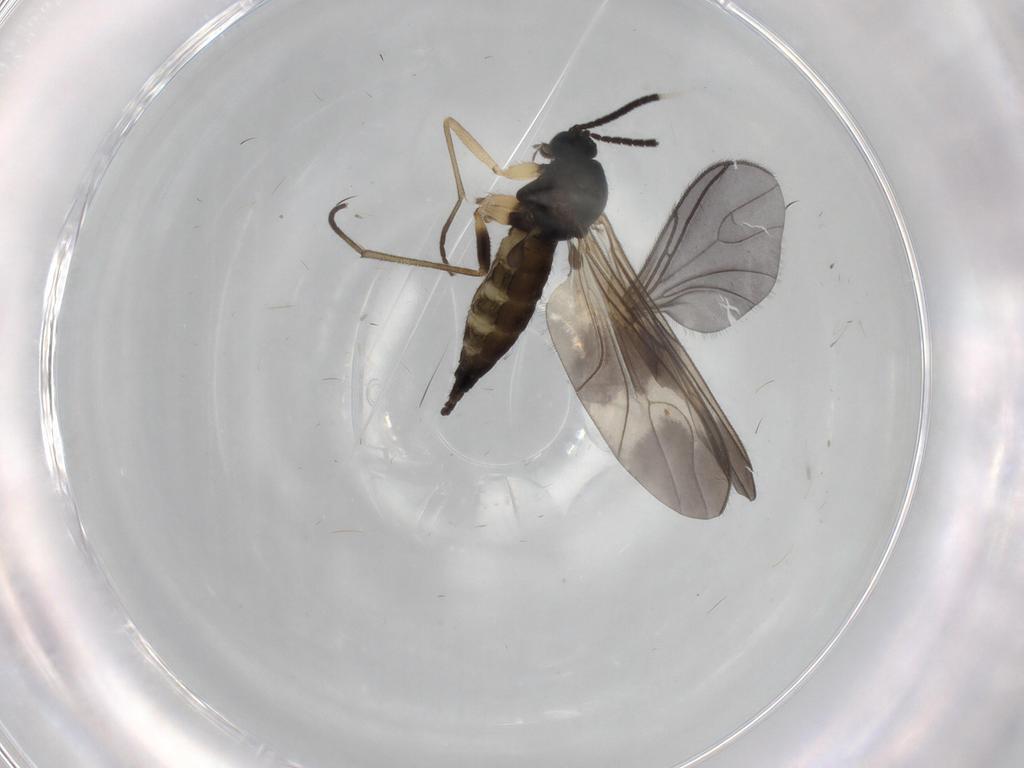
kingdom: Animalia
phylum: Arthropoda
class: Insecta
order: Diptera
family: Sciaridae
